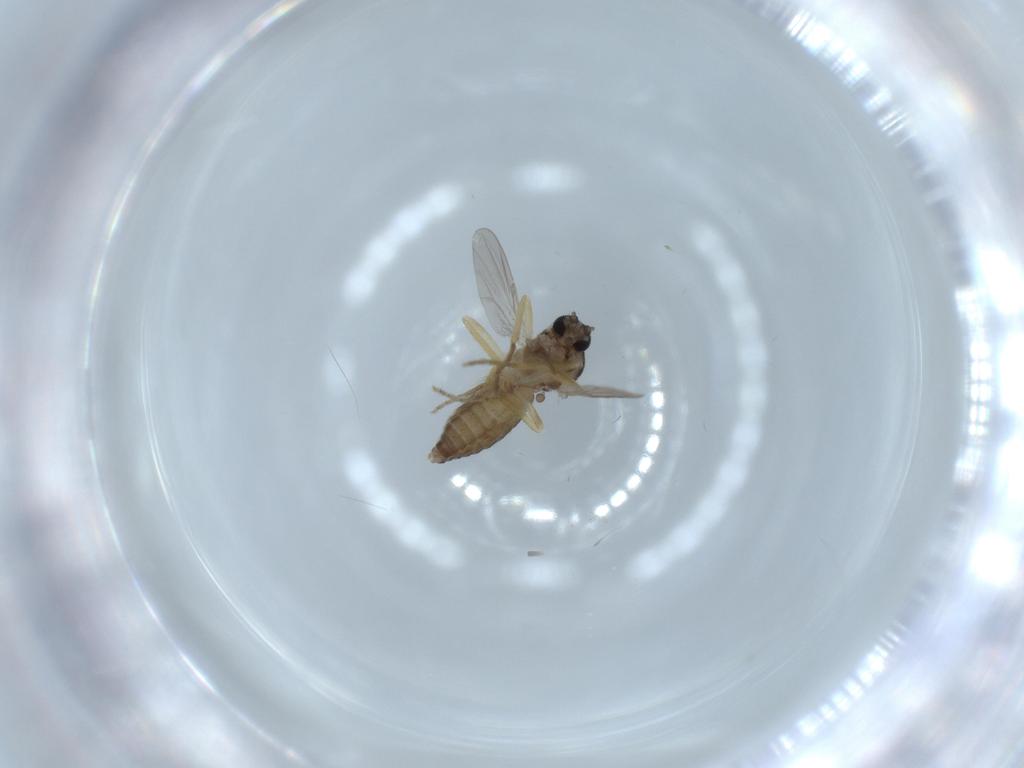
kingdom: Animalia
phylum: Arthropoda
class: Insecta
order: Diptera
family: Ceratopogonidae
